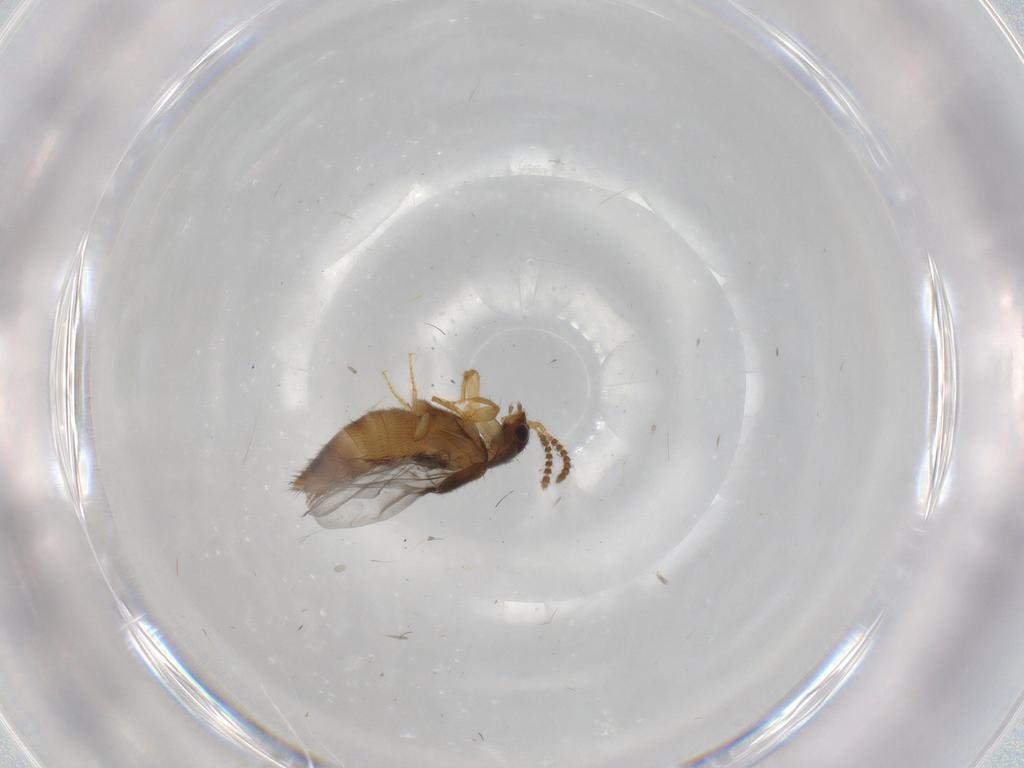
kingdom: Animalia
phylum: Arthropoda
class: Insecta
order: Coleoptera
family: Staphylinidae
